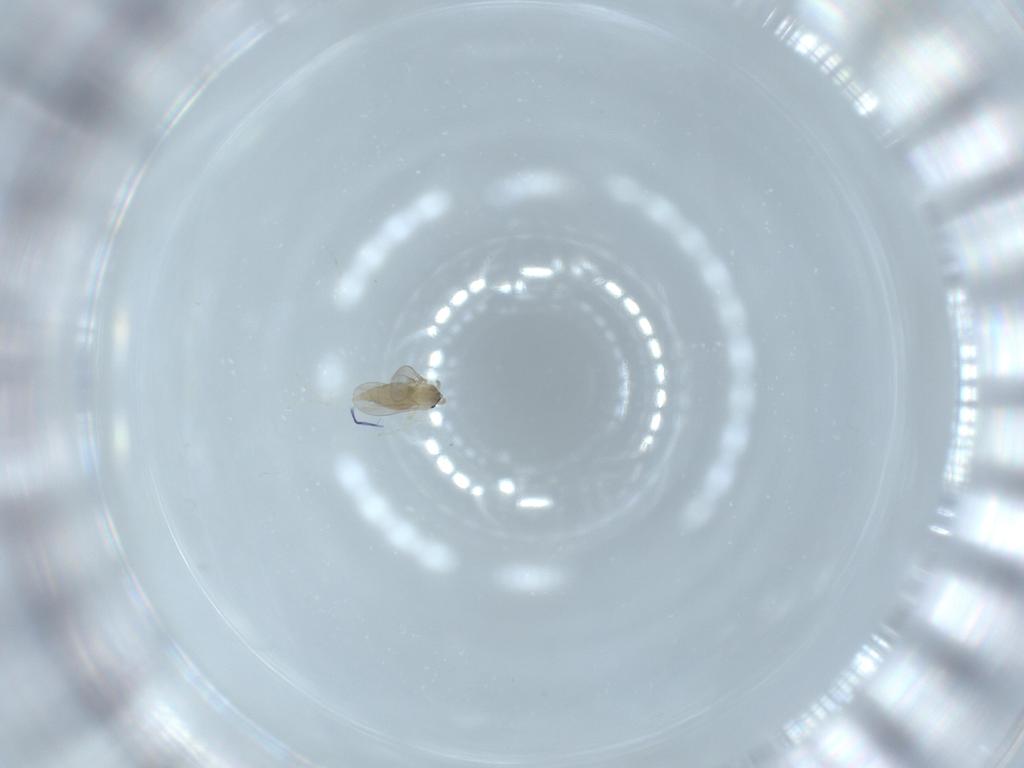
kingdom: Animalia
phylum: Arthropoda
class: Insecta
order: Diptera
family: Cecidomyiidae
